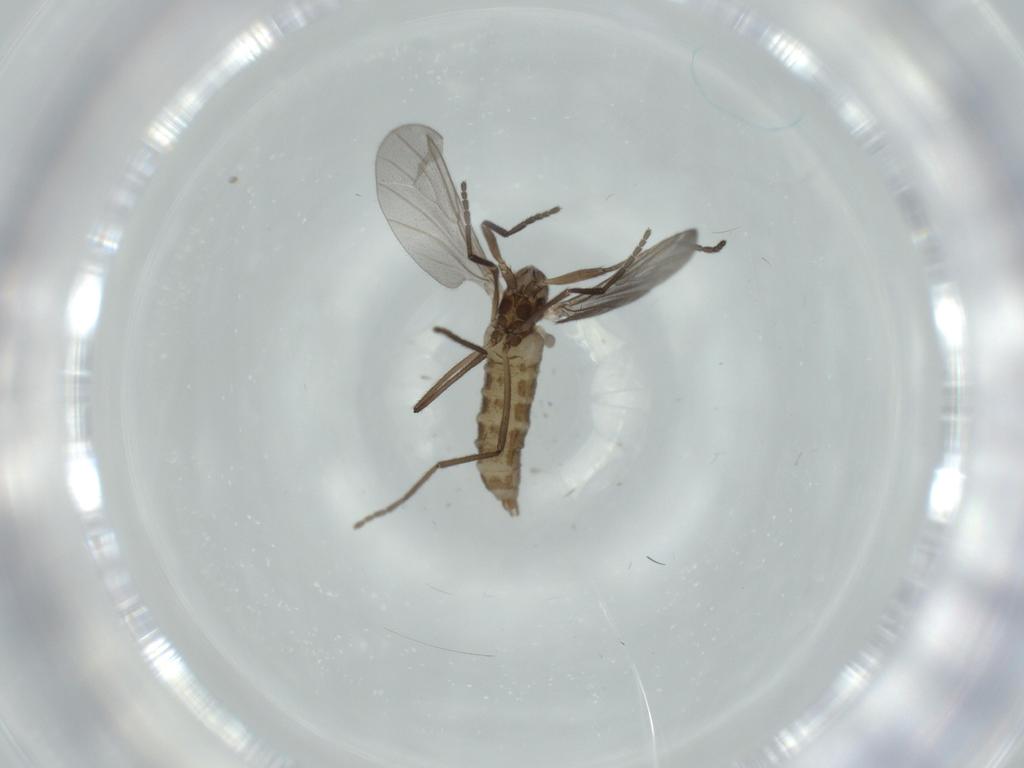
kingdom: Animalia
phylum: Arthropoda
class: Insecta
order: Diptera
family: Cecidomyiidae
